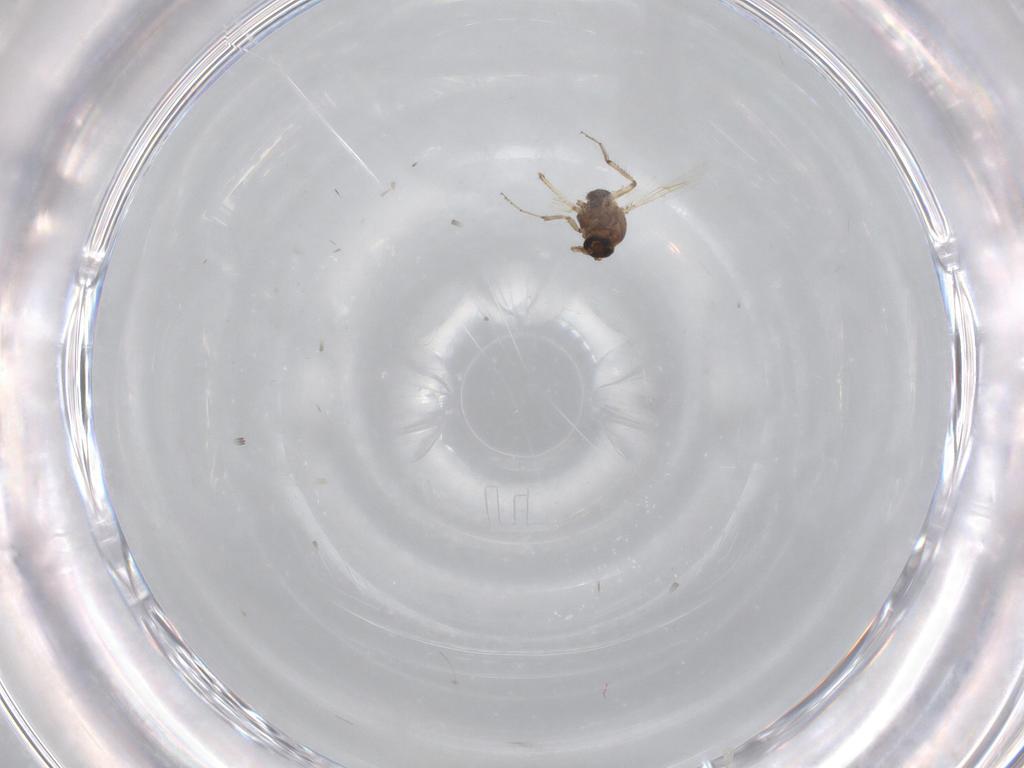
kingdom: Animalia
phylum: Arthropoda
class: Insecta
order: Diptera
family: Ceratopogonidae
